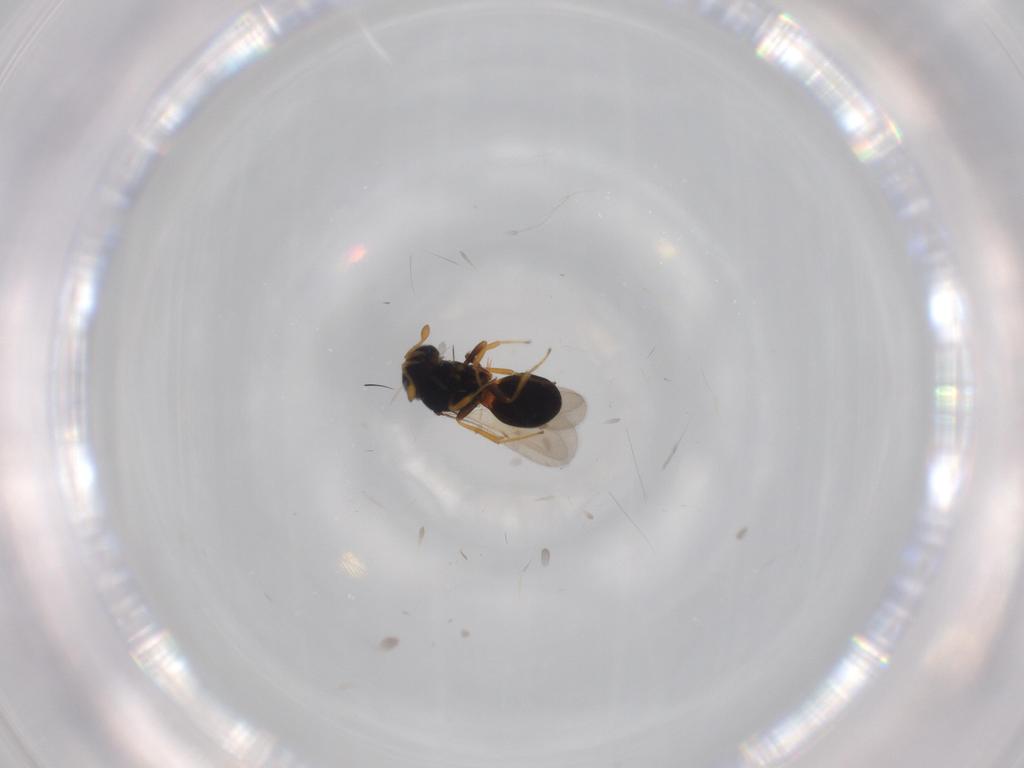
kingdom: Animalia
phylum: Arthropoda
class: Insecta
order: Hymenoptera
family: Scelionidae
